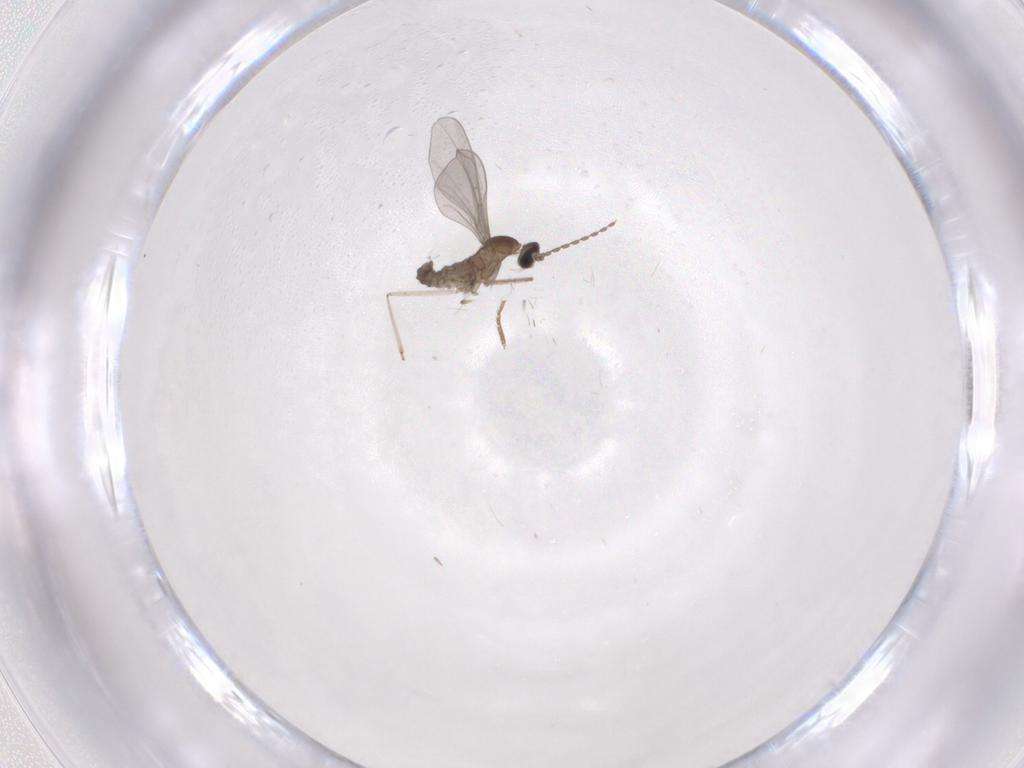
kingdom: Animalia
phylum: Arthropoda
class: Insecta
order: Diptera
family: Cecidomyiidae
